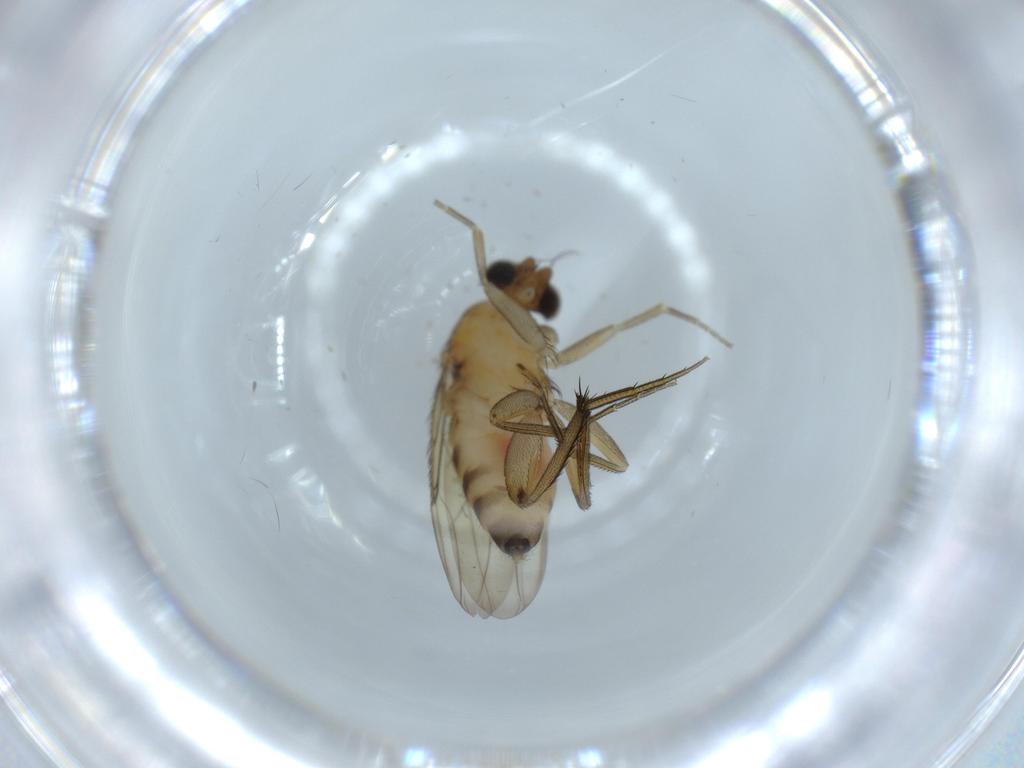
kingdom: Animalia
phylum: Arthropoda
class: Insecta
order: Diptera
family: Phoridae
